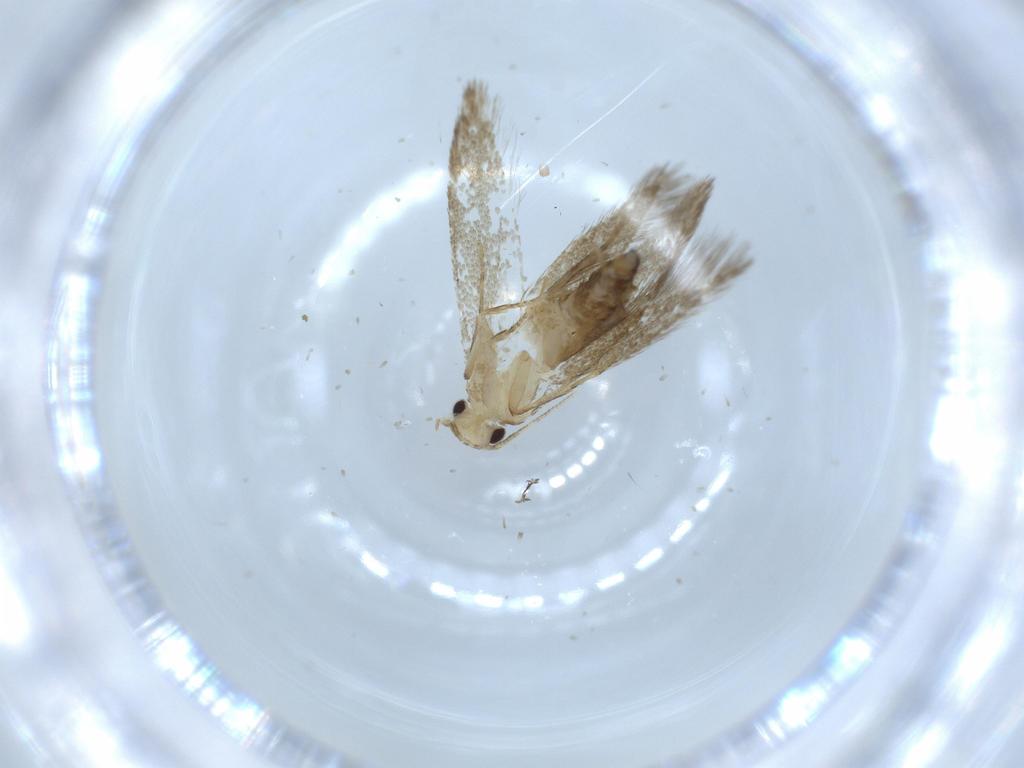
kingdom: Animalia
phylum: Arthropoda
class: Insecta
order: Lepidoptera
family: Tineidae
